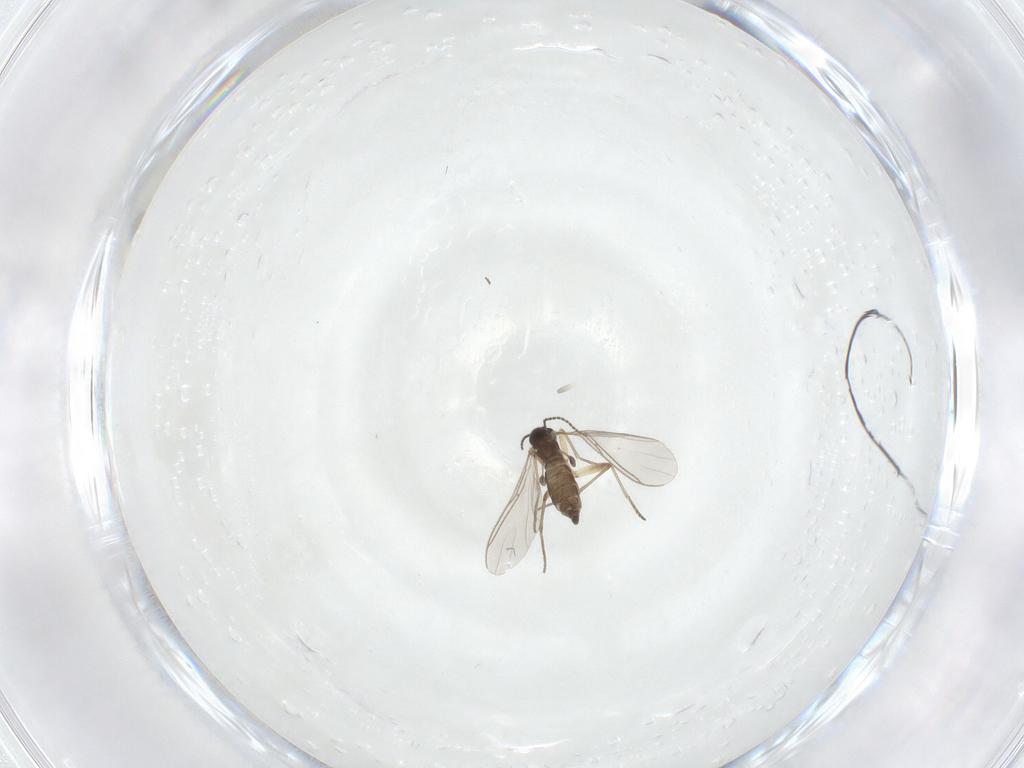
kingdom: Animalia
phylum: Arthropoda
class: Insecta
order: Diptera
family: Sciaridae
